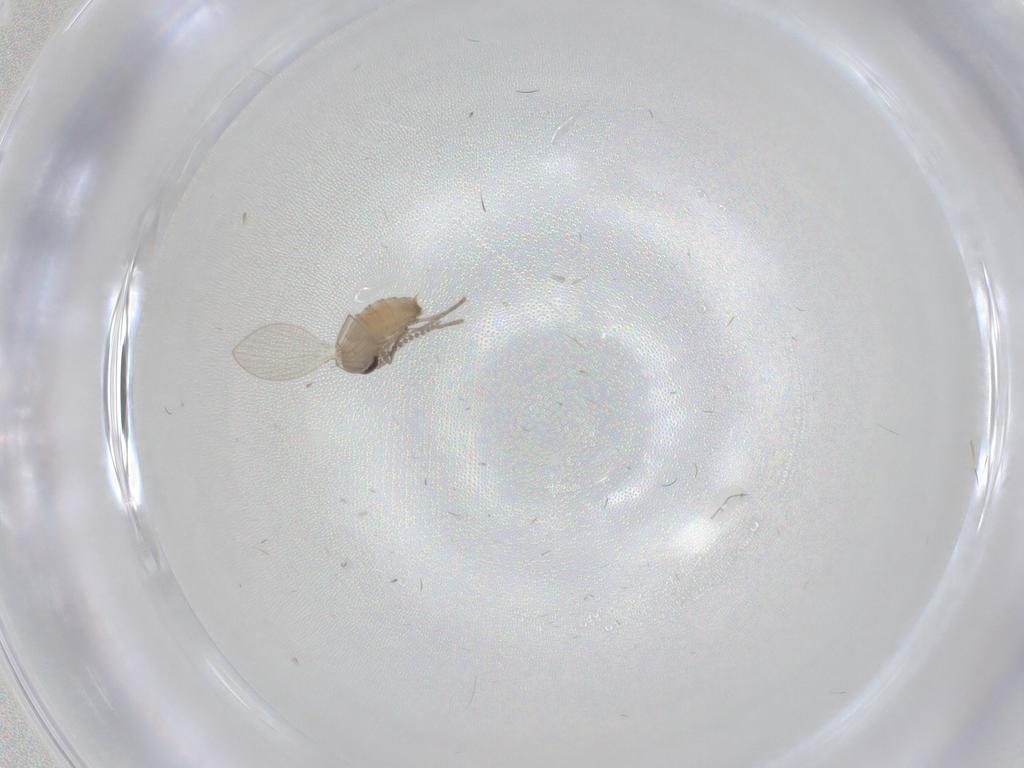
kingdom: Animalia
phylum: Arthropoda
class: Insecta
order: Diptera
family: Psychodidae
